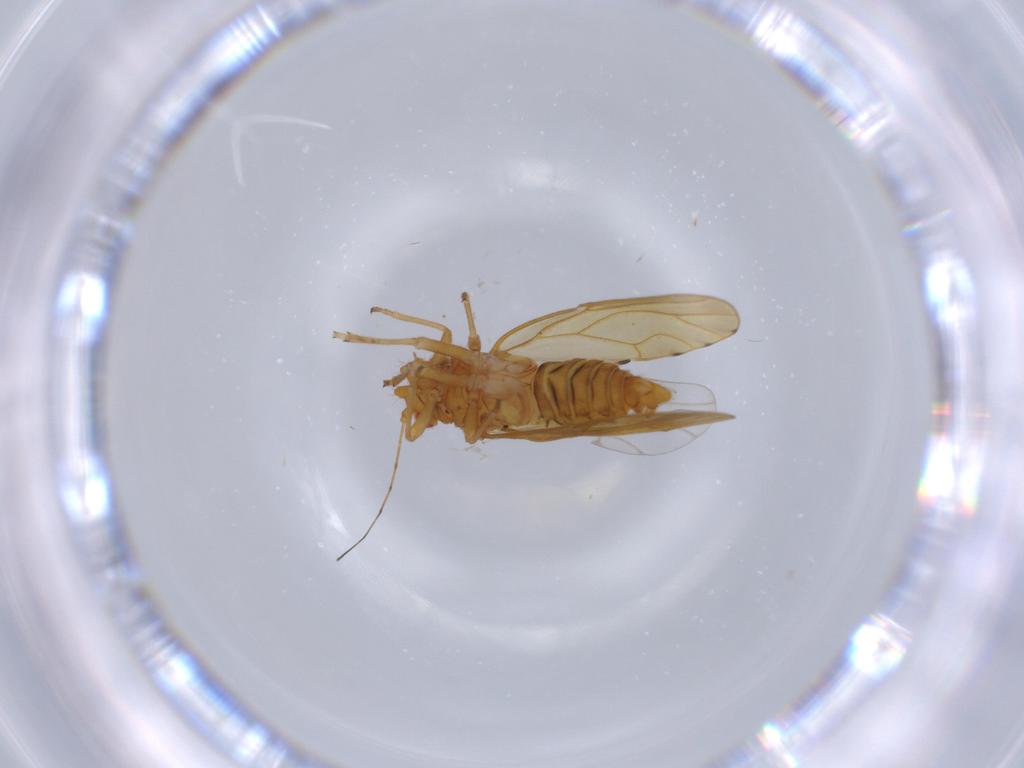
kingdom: Animalia
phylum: Arthropoda
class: Insecta
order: Hemiptera
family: Psylloidea_incertae_sedis
